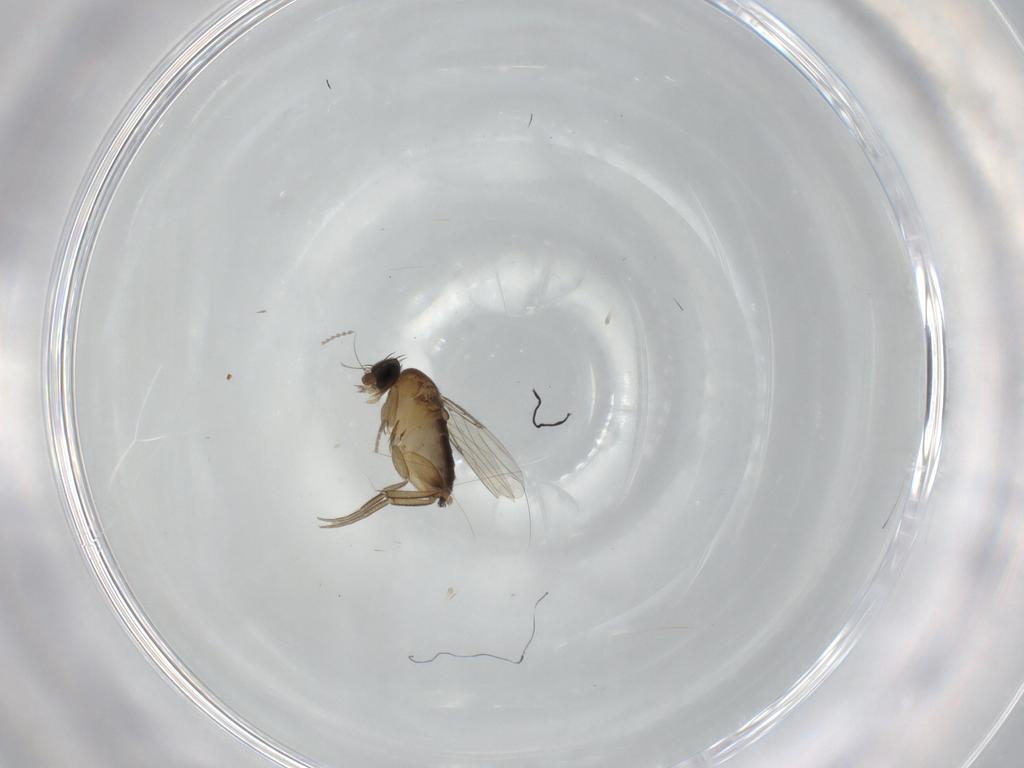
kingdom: Animalia
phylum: Arthropoda
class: Insecta
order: Diptera
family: Phoridae
